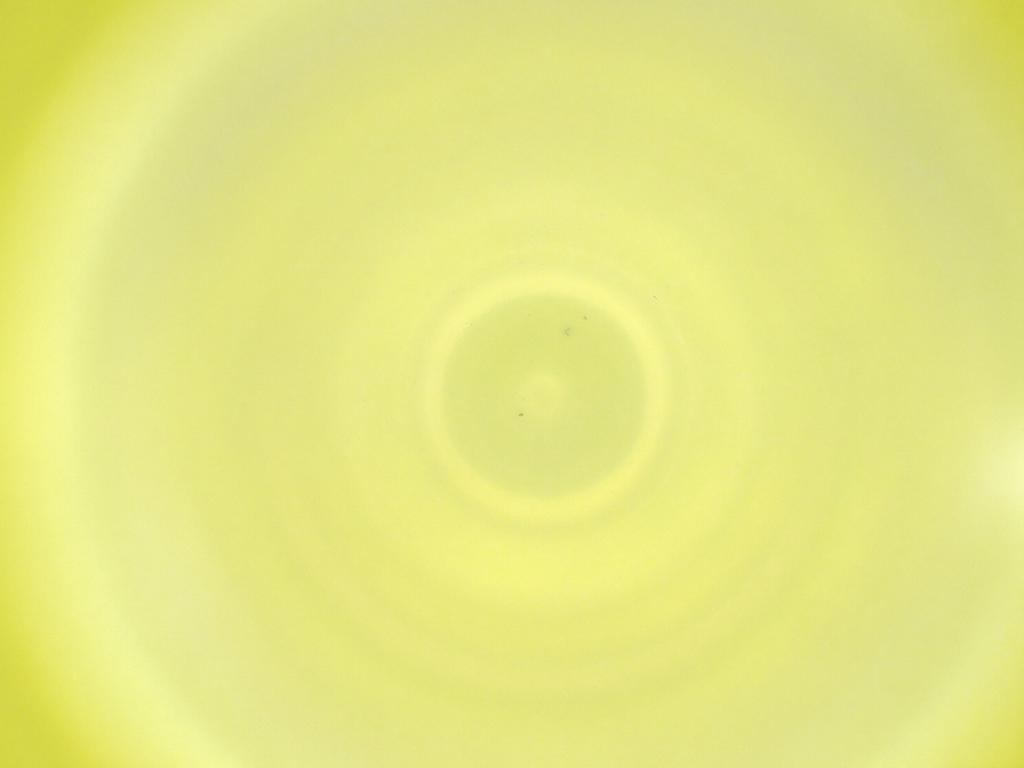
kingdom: Animalia
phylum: Arthropoda
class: Insecta
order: Diptera
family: Cecidomyiidae
